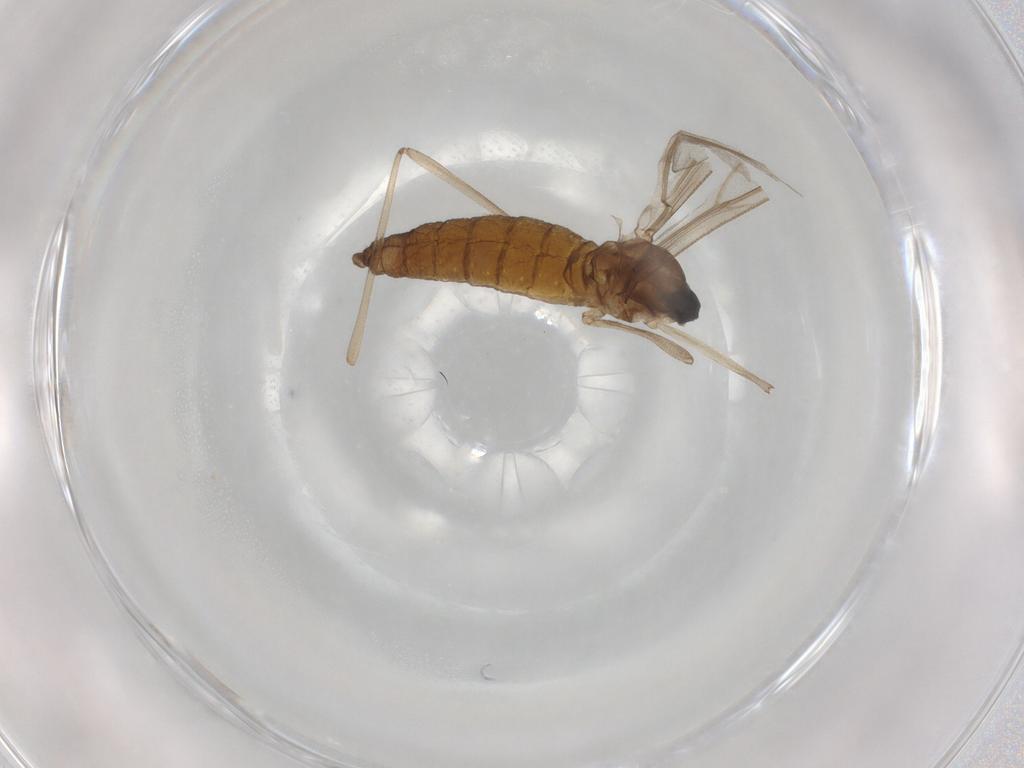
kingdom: Animalia
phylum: Arthropoda
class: Insecta
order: Diptera
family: Cecidomyiidae
